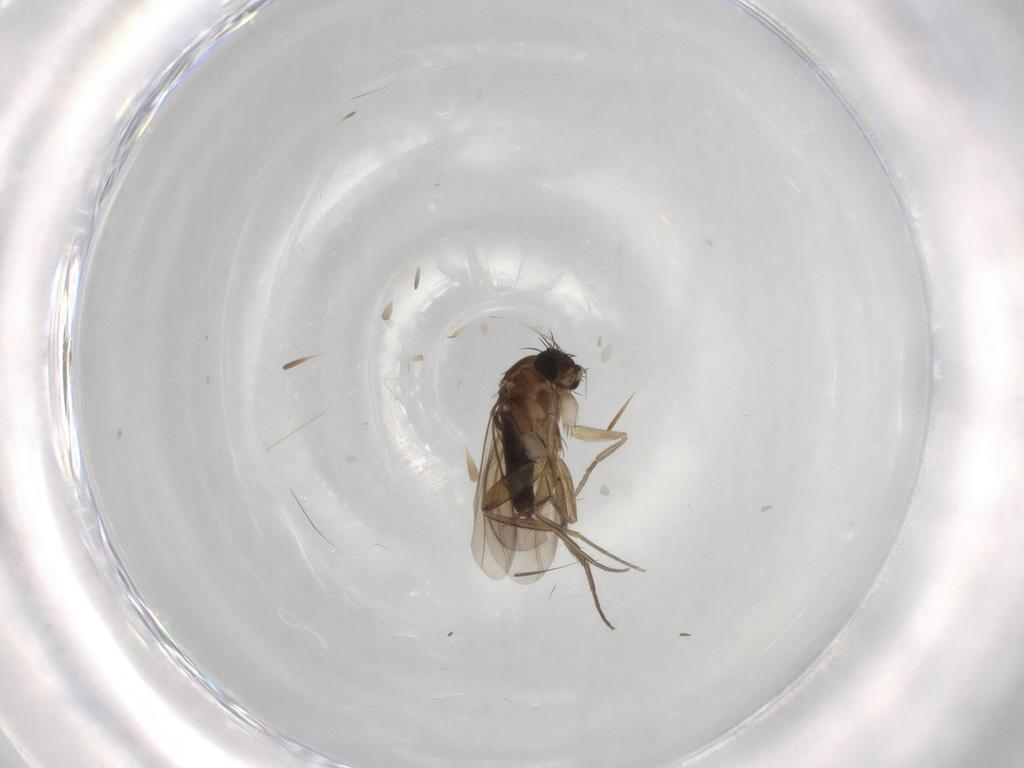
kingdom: Animalia
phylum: Arthropoda
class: Insecta
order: Diptera
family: Phoridae
